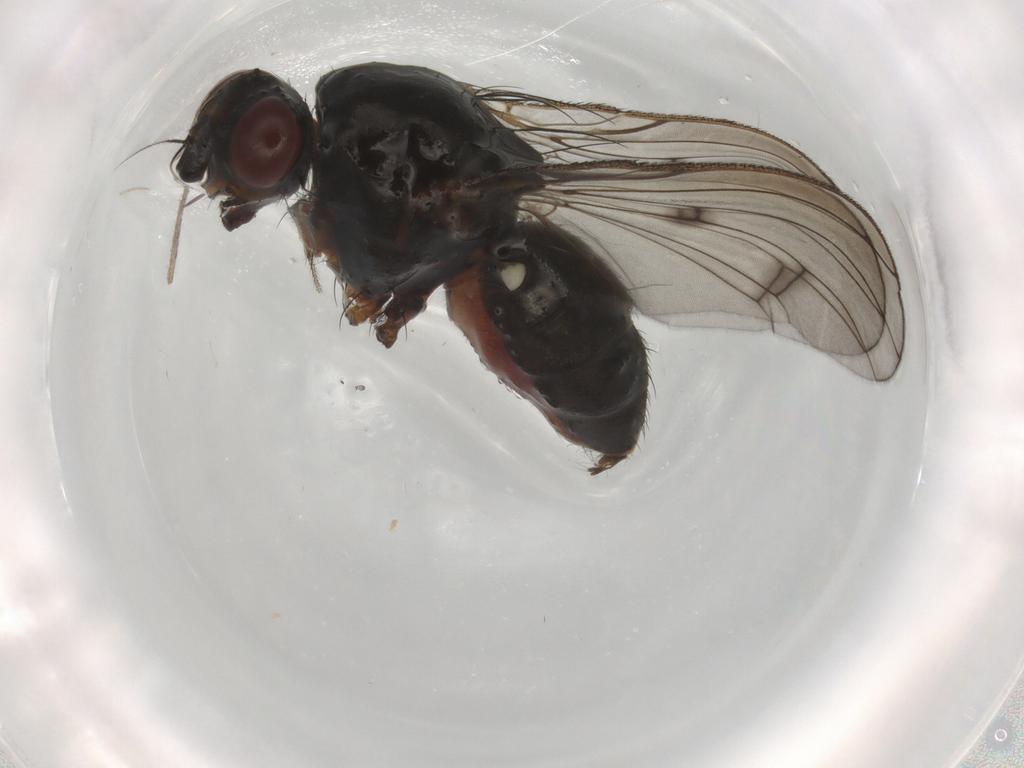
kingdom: Animalia
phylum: Arthropoda
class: Insecta
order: Diptera
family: Anthomyiidae
